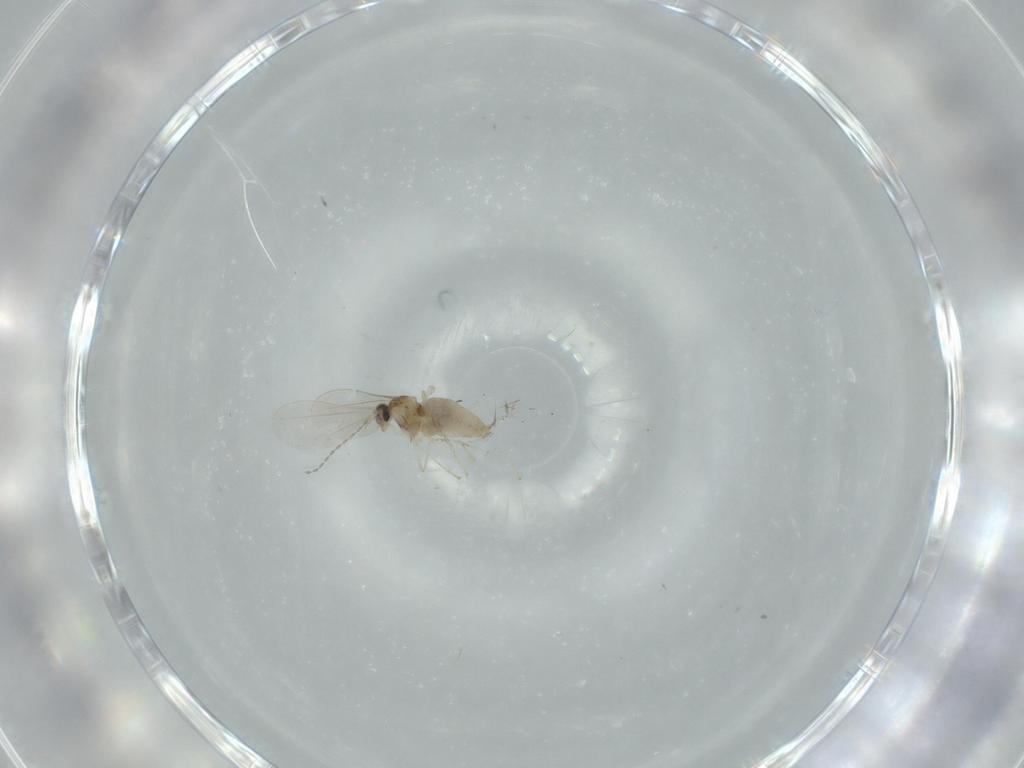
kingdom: Animalia
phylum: Arthropoda
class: Insecta
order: Diptera
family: Cecidomyiidae
